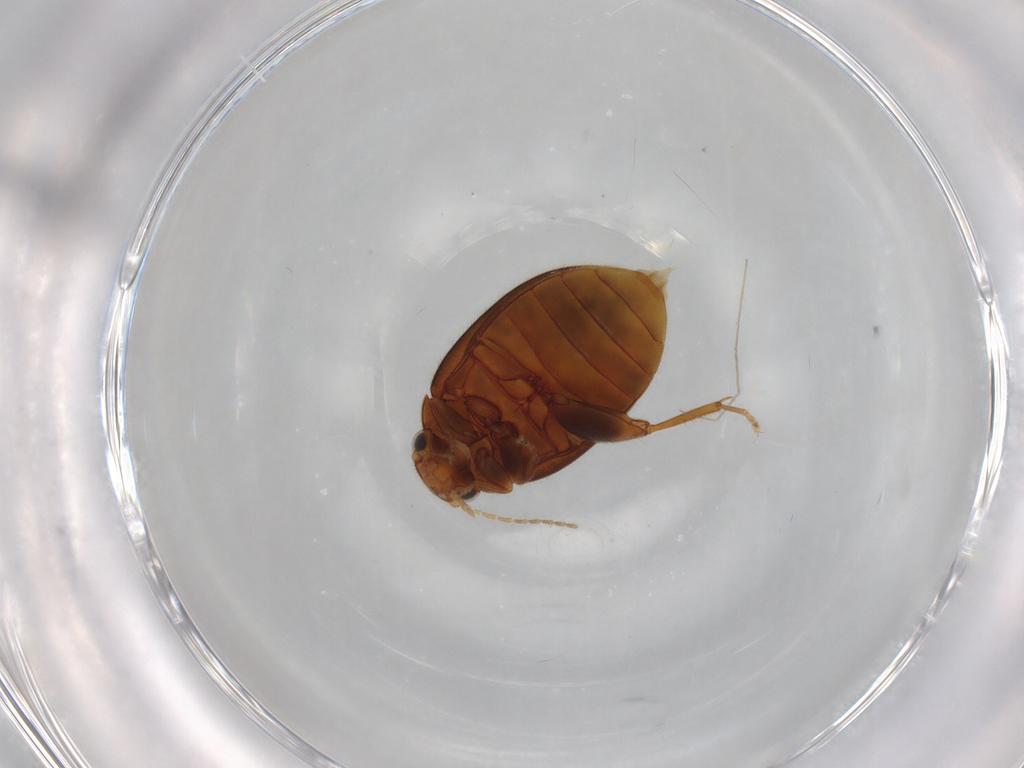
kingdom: Animalia
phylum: Arthropoda
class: Insecta
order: Coleoptera
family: Scirtidae
